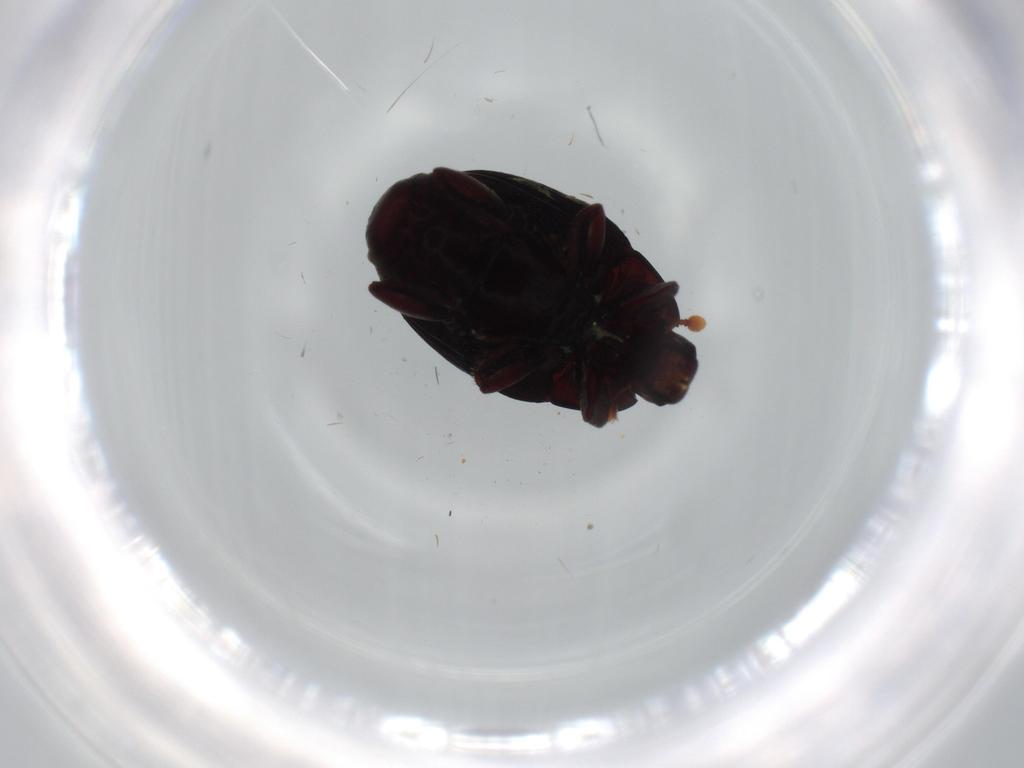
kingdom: Animalia
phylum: Arthropoda
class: Insecta
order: Coleoptera
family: Histeridae
